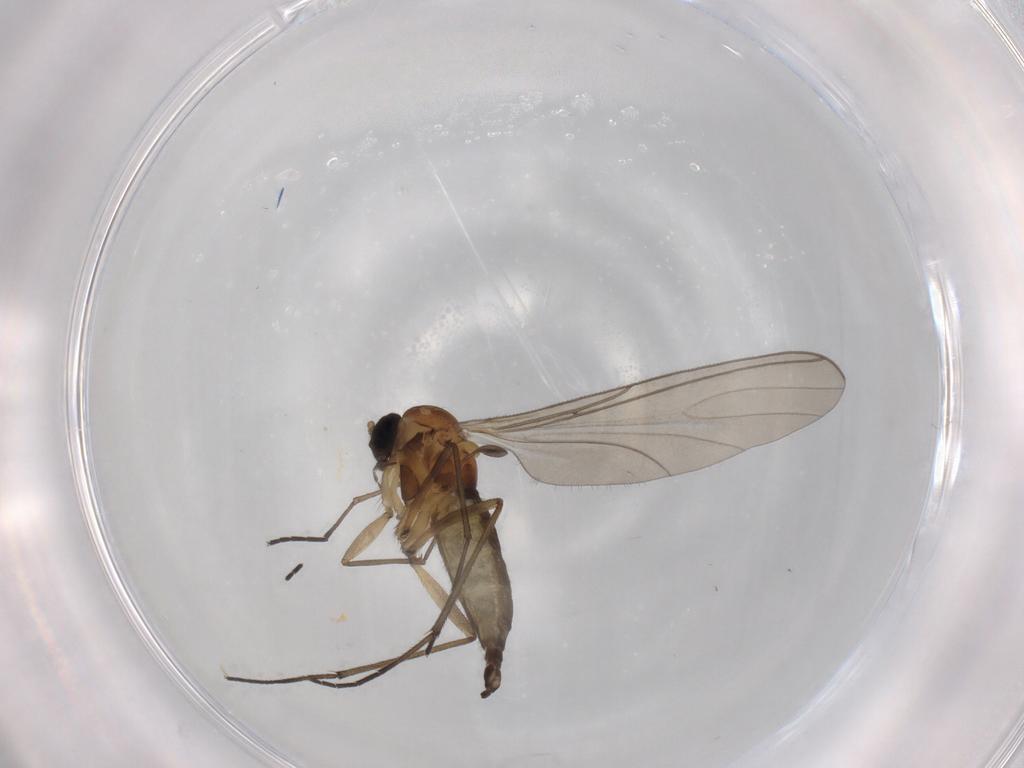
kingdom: Animalia
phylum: Arthropoda
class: Insecta
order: Diptera
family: Sciaridae
